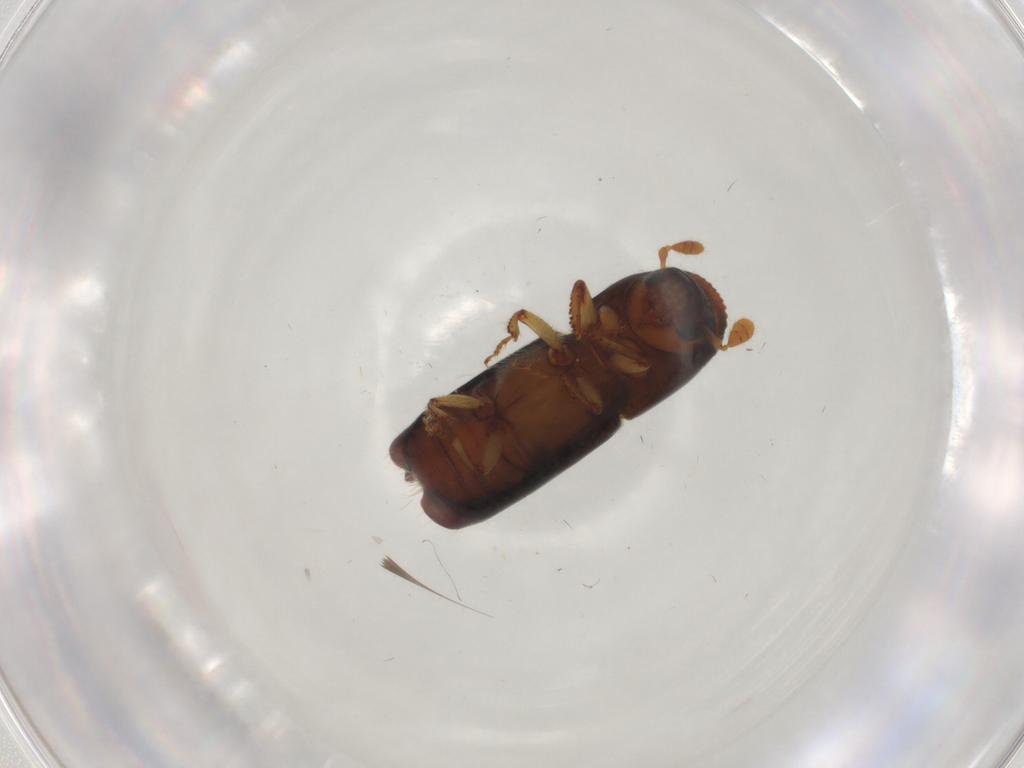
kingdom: Animalia
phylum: Arthropoda
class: Insecta
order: Coleoptera
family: Curculionidae
